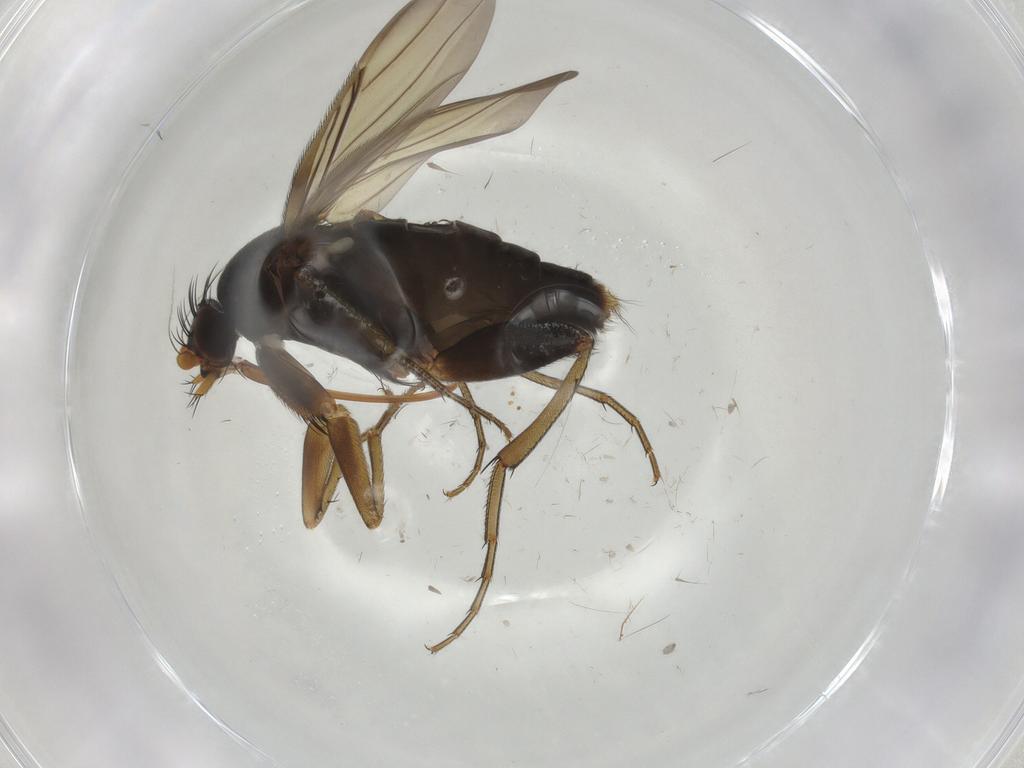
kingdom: Animalia
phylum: Arthropoda
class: Insecta
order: Diptera
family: Phoridae
